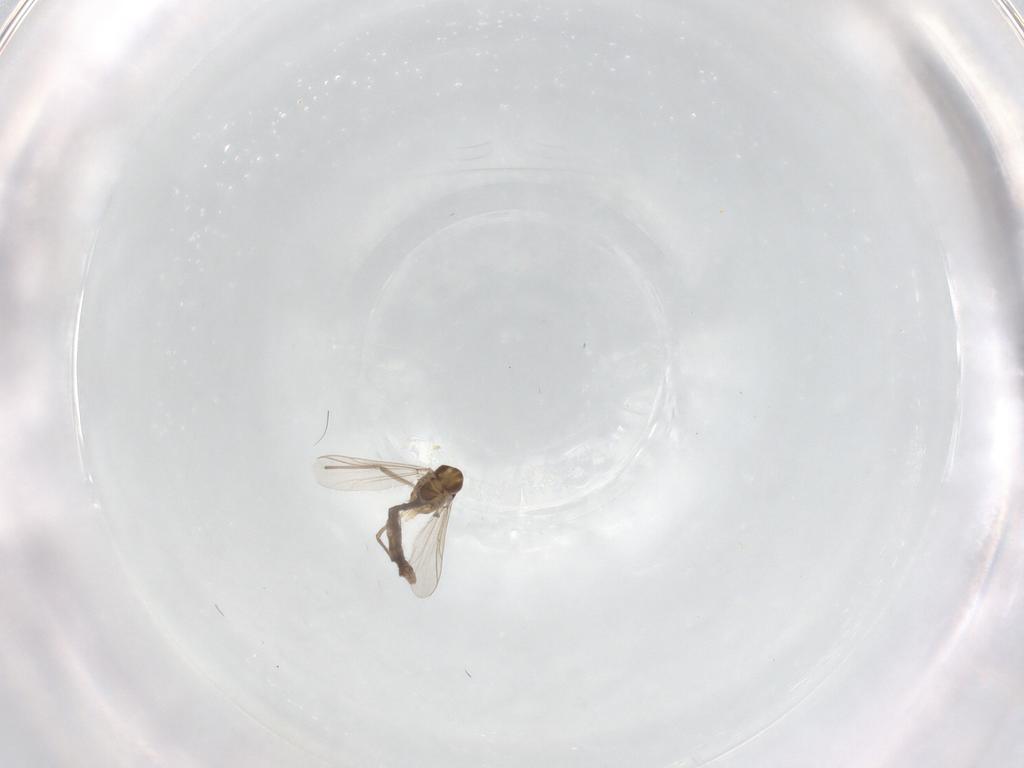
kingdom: Animalia
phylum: Arthropoda
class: Insecta
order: Diptera
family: Chironomidae
